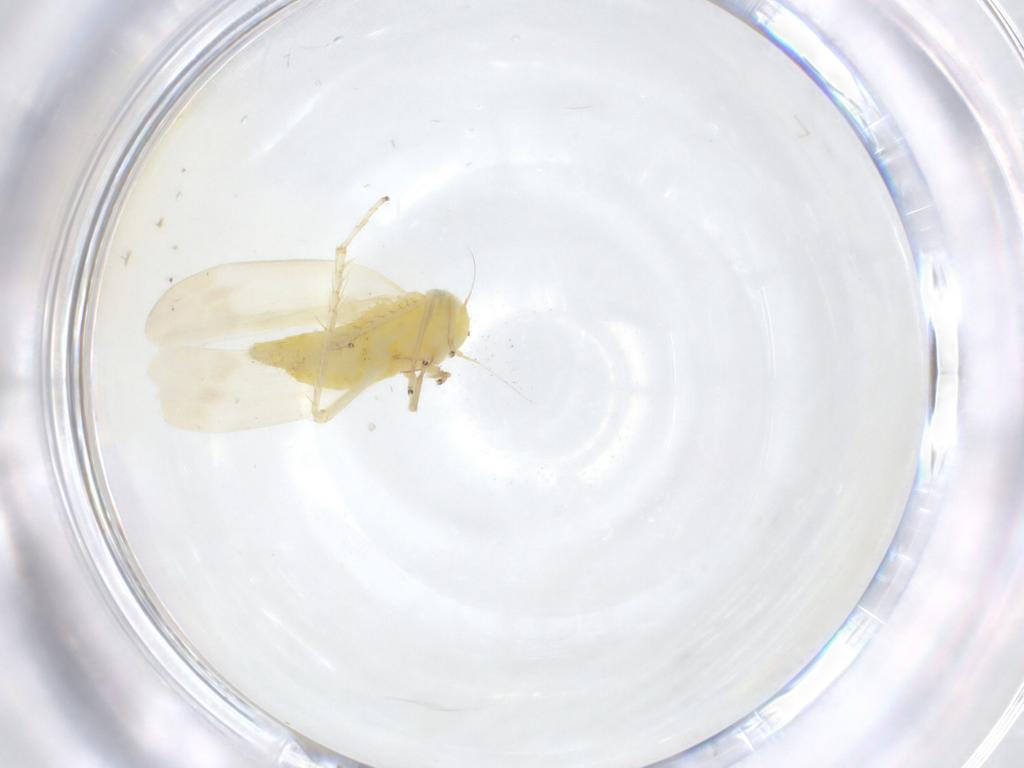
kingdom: Animalia
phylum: Arthropoda
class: Insecta
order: Hemiptera
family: Cicadellidae
